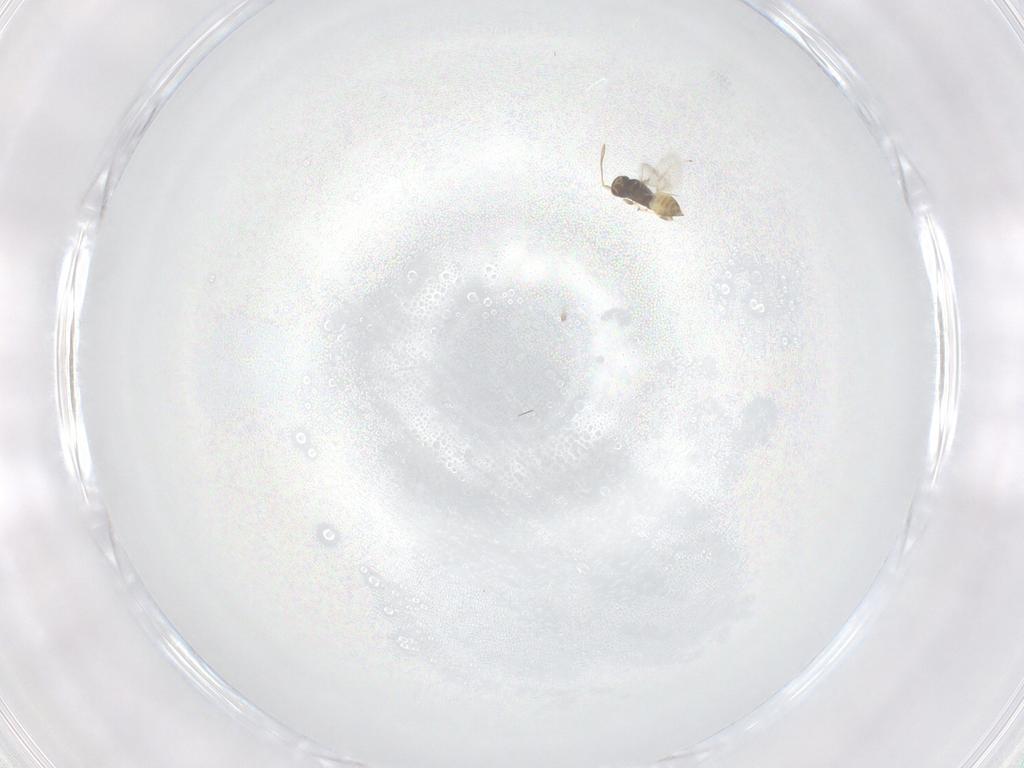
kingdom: Animalia
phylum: Arthropoda
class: Insecta
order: Hymenoptera
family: Mymaridae
